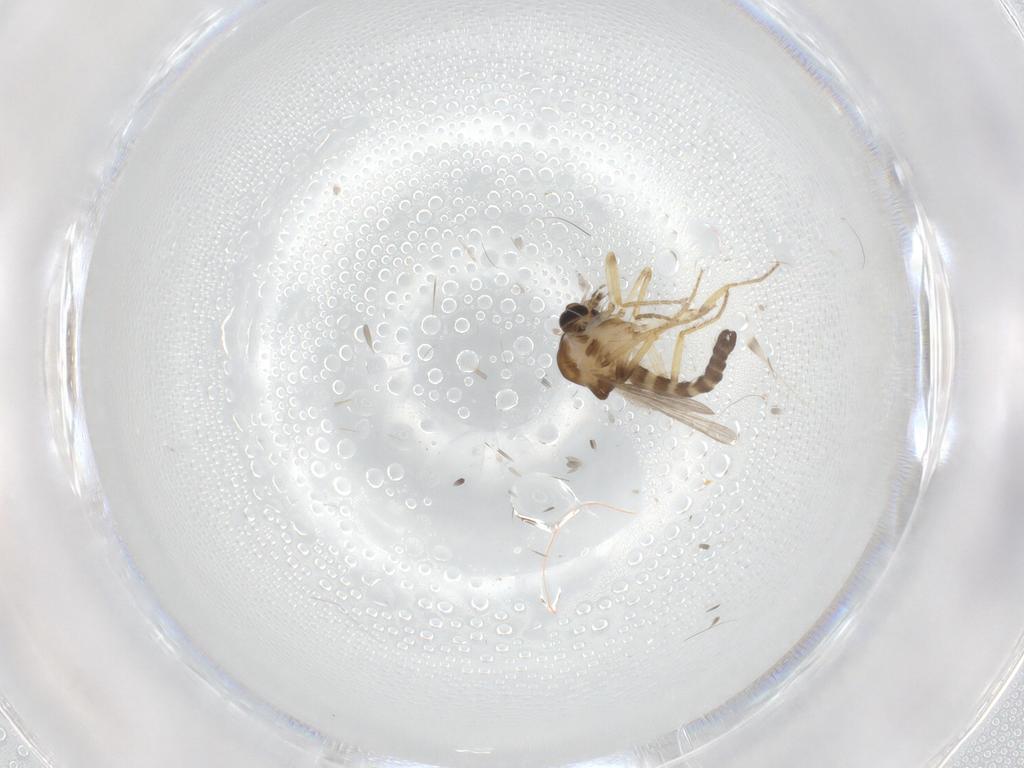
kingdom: Animalia
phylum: Arthropoda
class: Insecta
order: Diptera
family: Ceratopogonidae
